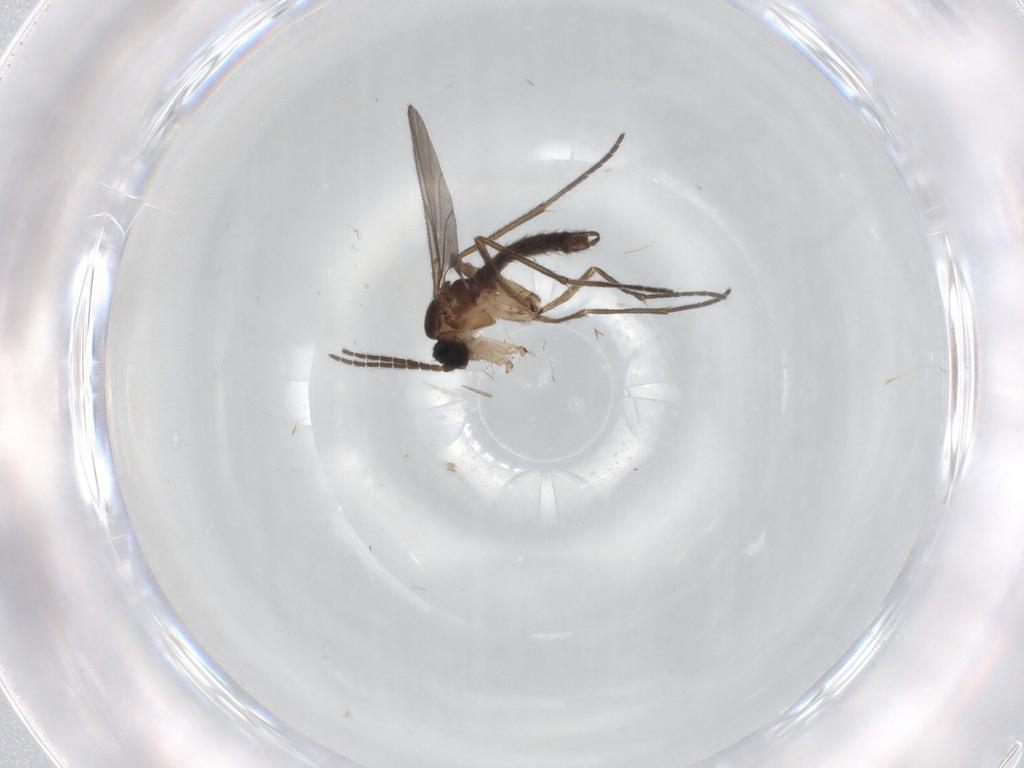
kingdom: Animalia
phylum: Arthropoda
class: Insecta
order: Diptera
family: Sciaridae
